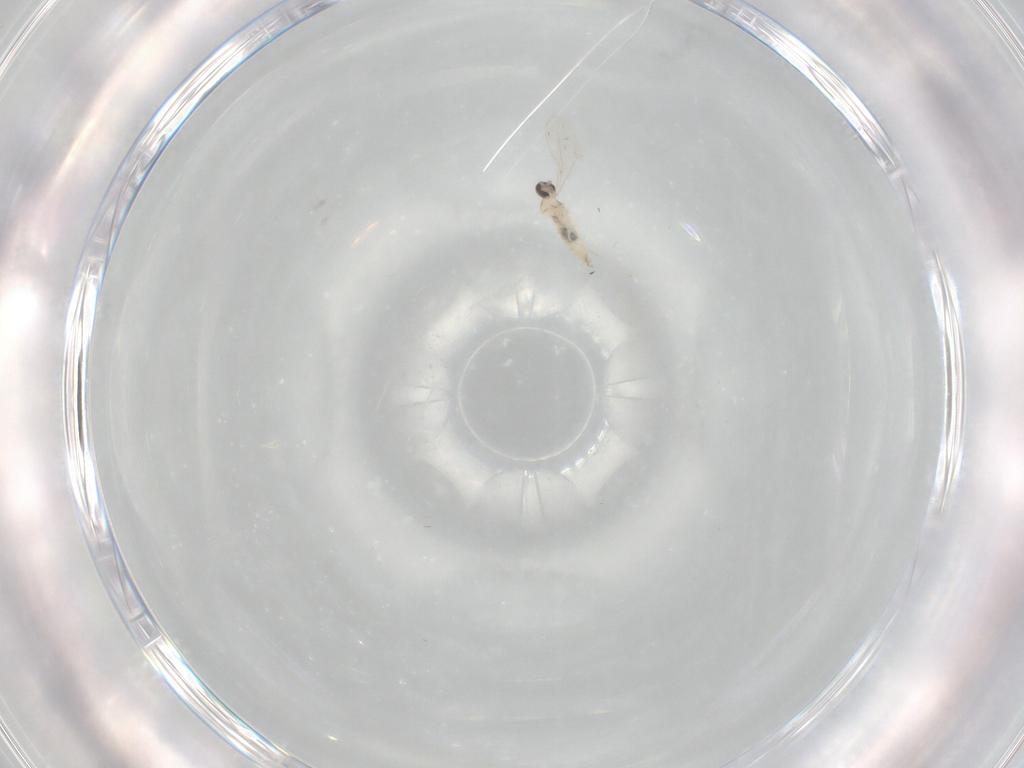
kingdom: Animalia
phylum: Arthropoda
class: Insecta
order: Diptera
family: Cecidomyiidae
